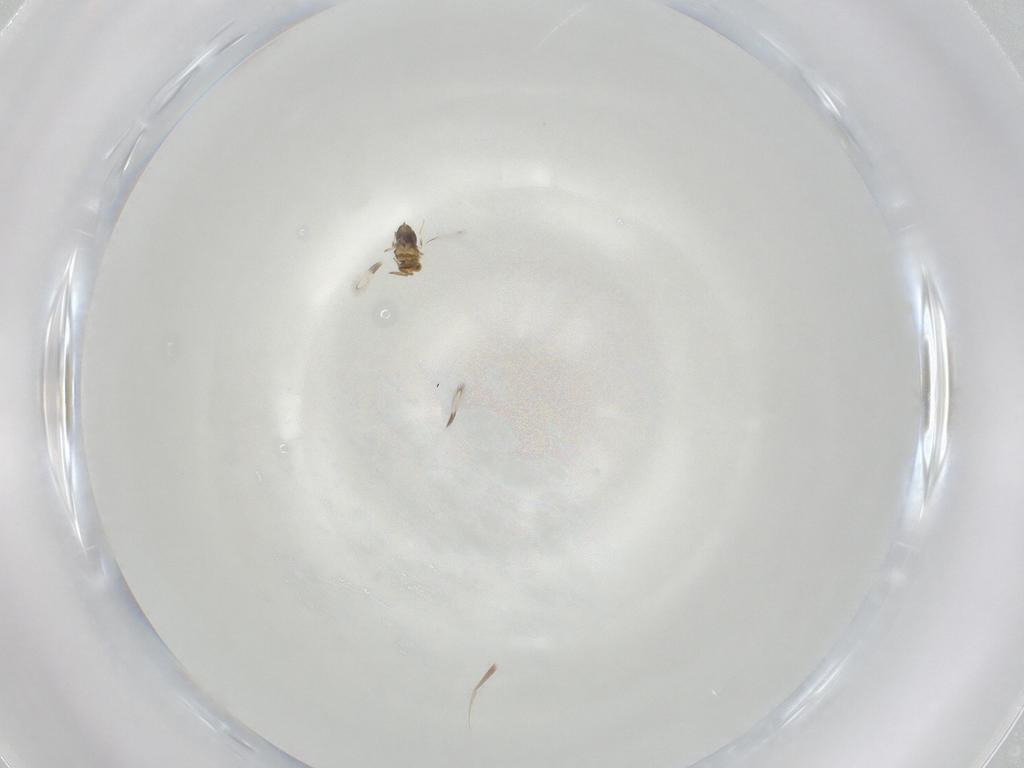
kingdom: Animalia
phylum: Arthropoda
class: Insecta
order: Hymenoptera
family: Aphelinidae
